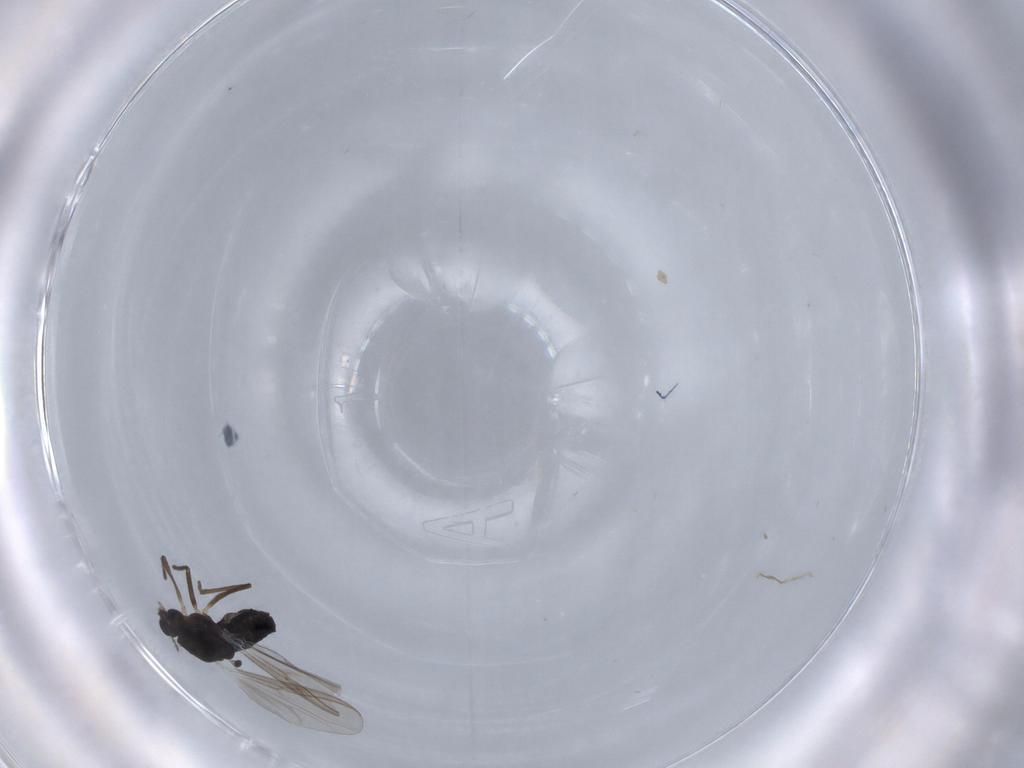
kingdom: Animalia
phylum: Arthropoda
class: Insecta
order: Diptera
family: Chironomidae
